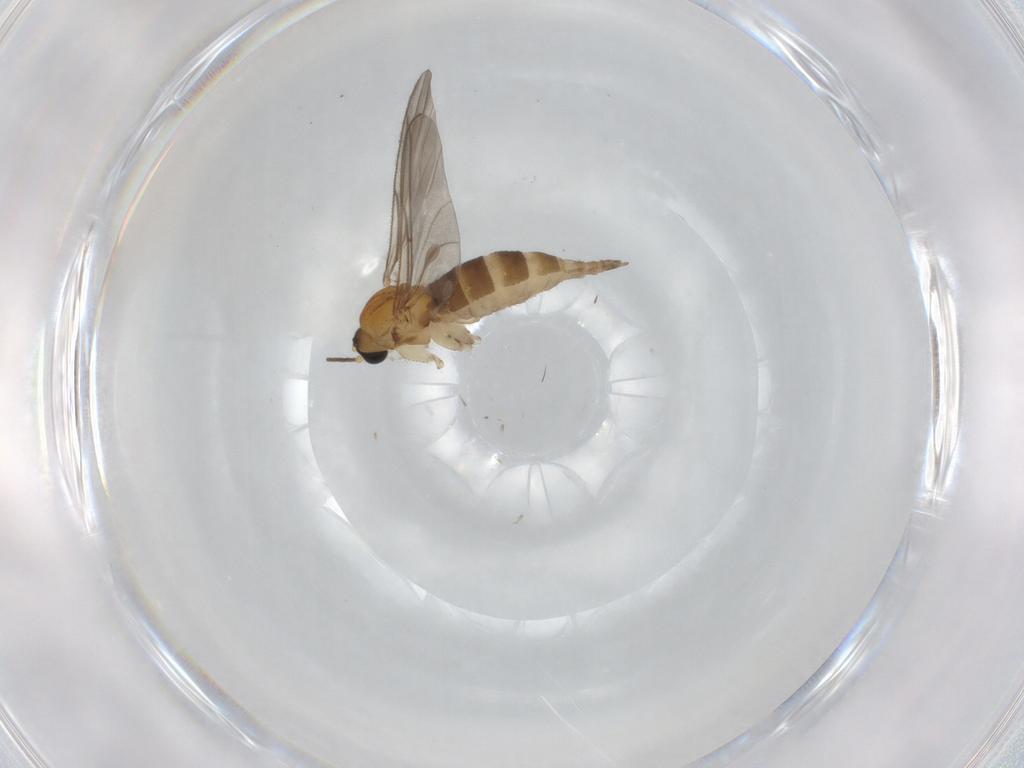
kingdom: Animalia
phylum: Arthropoda
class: Insecta
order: Diptera
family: Sciaridae
